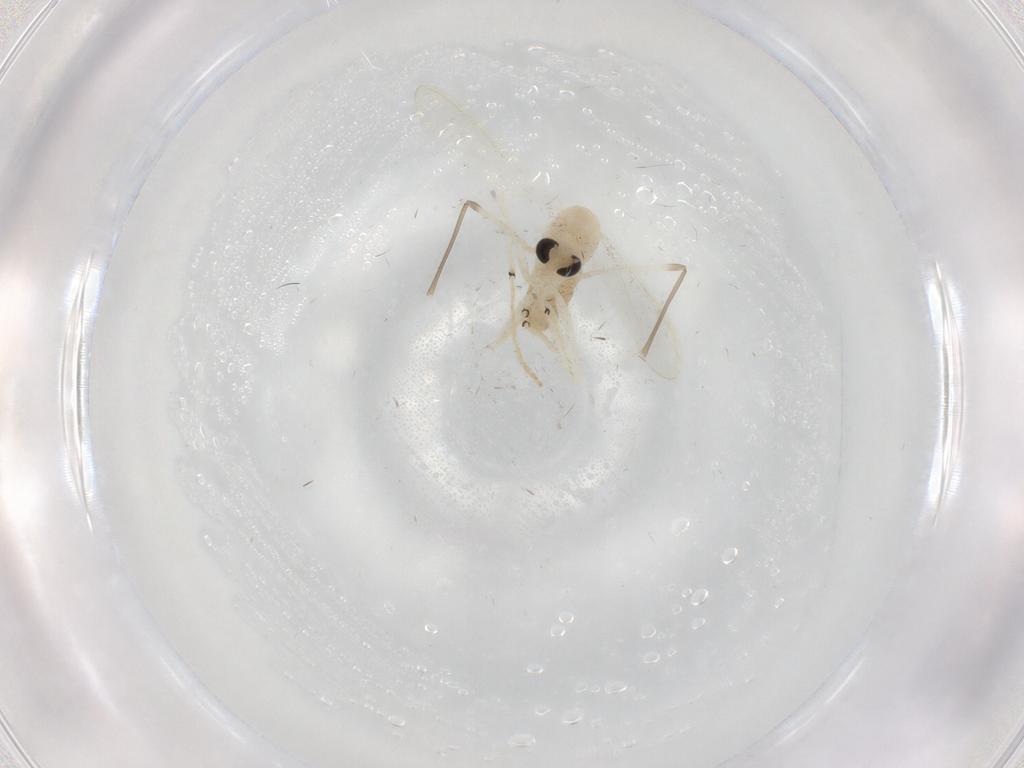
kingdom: Animalia
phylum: Arthropoda
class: Insecta
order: Diptera
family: Chironomidae
